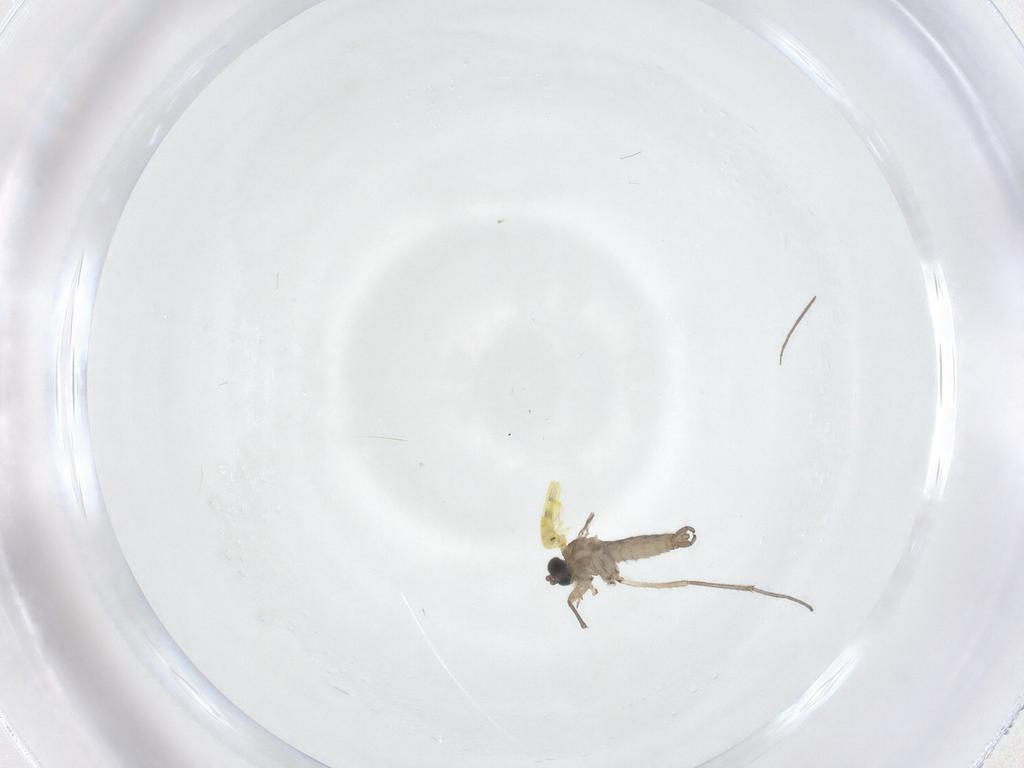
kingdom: Animalia
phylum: Arthropoda
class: Insecta
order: Diptera
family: Sciaridae
